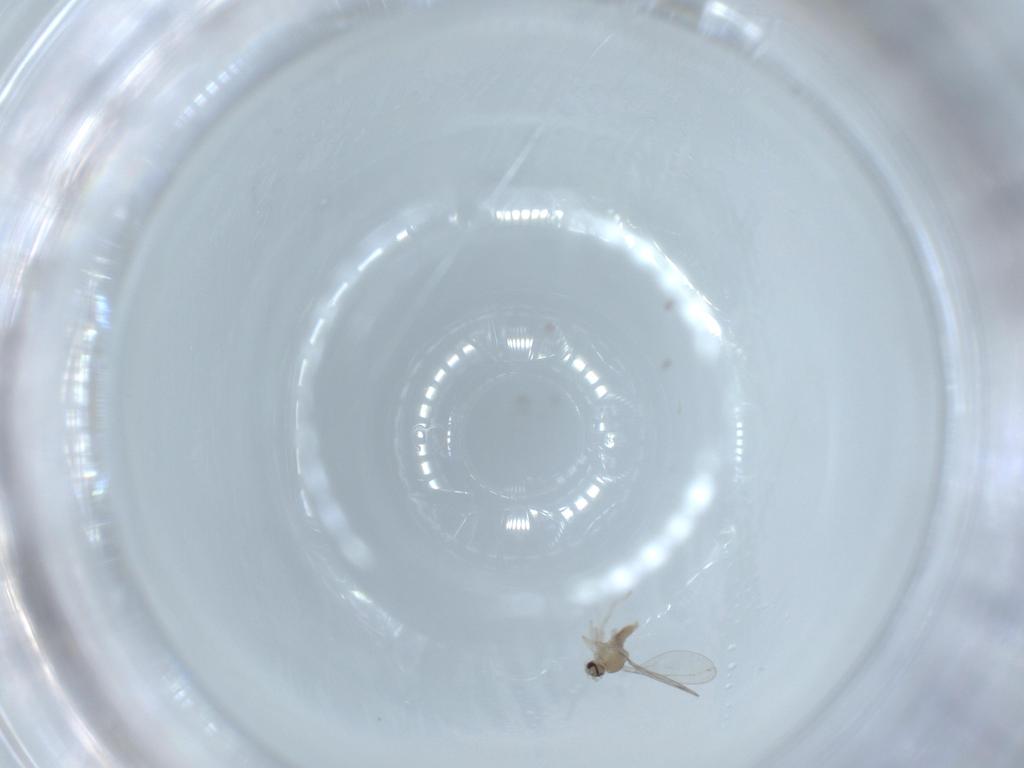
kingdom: Animalia
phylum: Arthropoda
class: Insecta
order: Diptera
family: Cecidomyiidae
